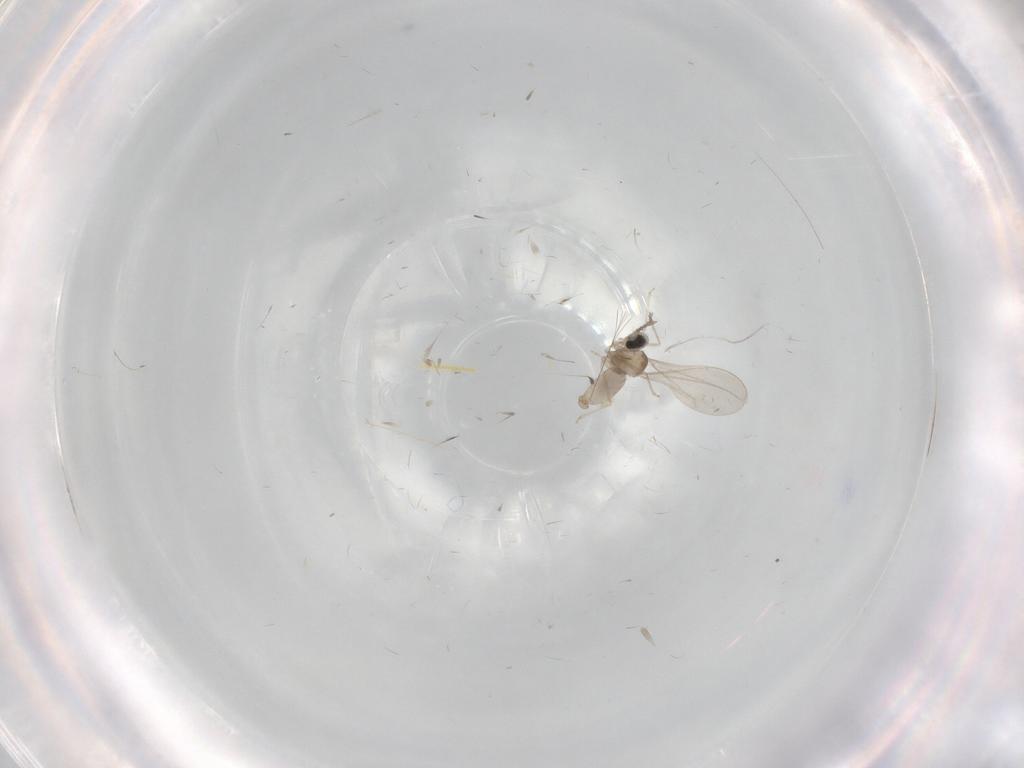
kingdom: Animalia
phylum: Arthropoda
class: Insecta
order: Diptera
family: Cecidomyiidae
